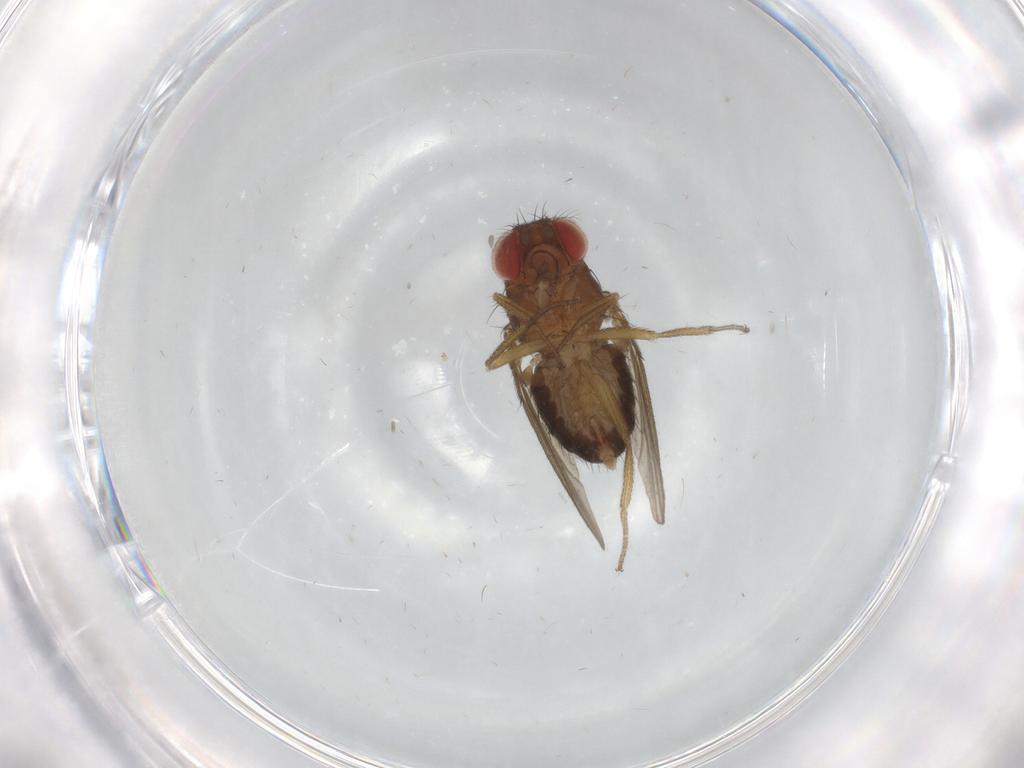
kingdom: Animalia
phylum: Arthropoda
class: Insecta
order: Diptera
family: Drosophilidae
